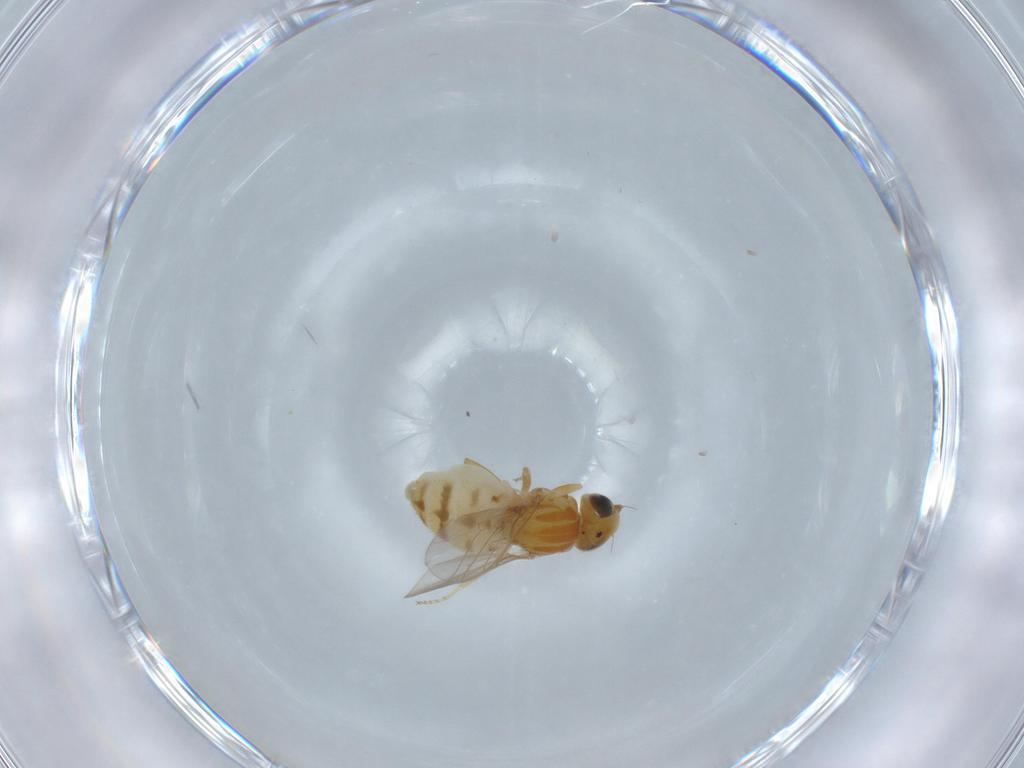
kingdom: Animalia
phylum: Arthropoda
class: Insecta
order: Diptera
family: Chloropidae
